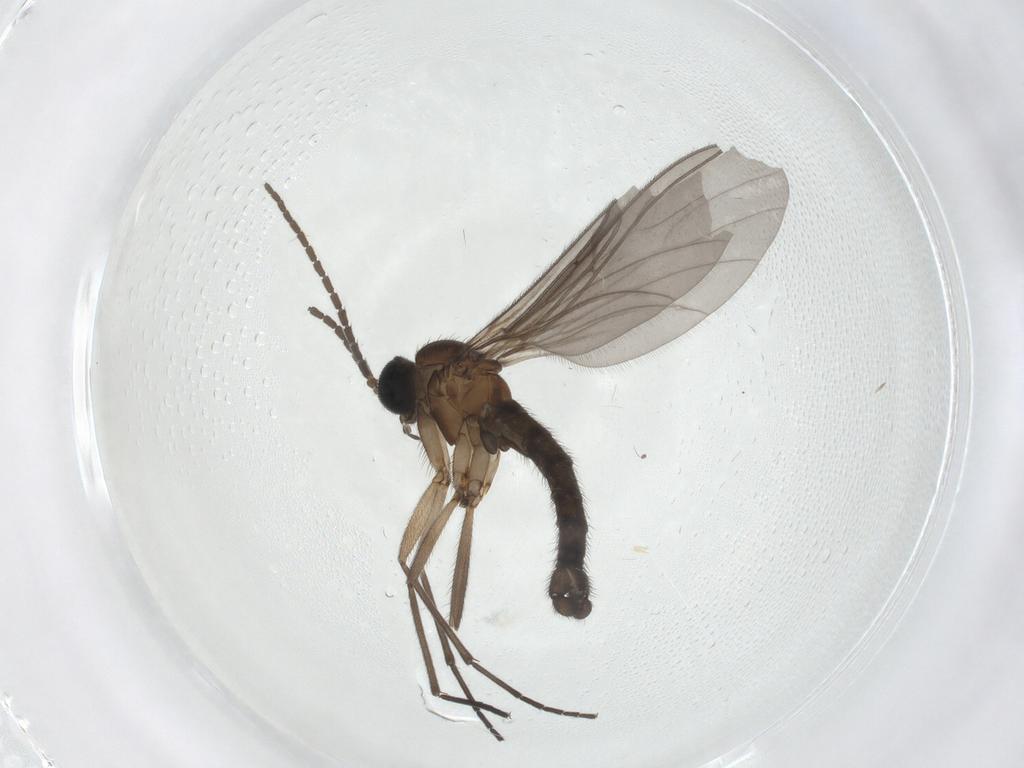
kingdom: Animalia
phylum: Arthropoda
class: Insecta
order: Diptera
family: Sciaridae
